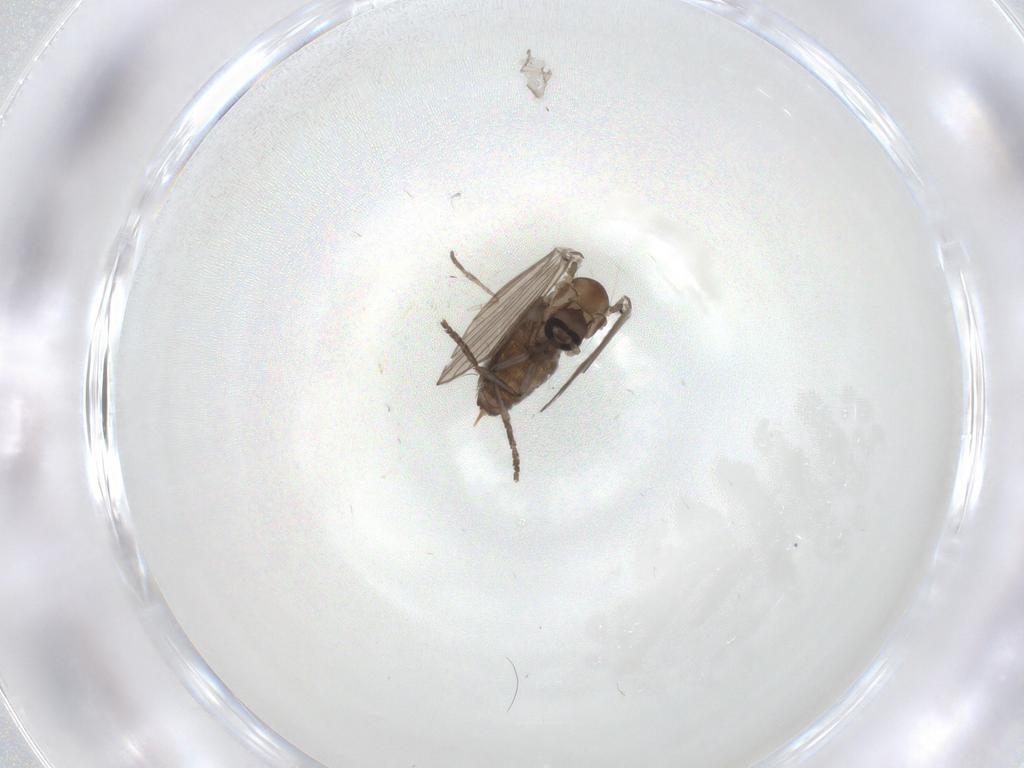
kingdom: Animalia
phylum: Arthropoda
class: Insecta
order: Diptera
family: Psychodidae
